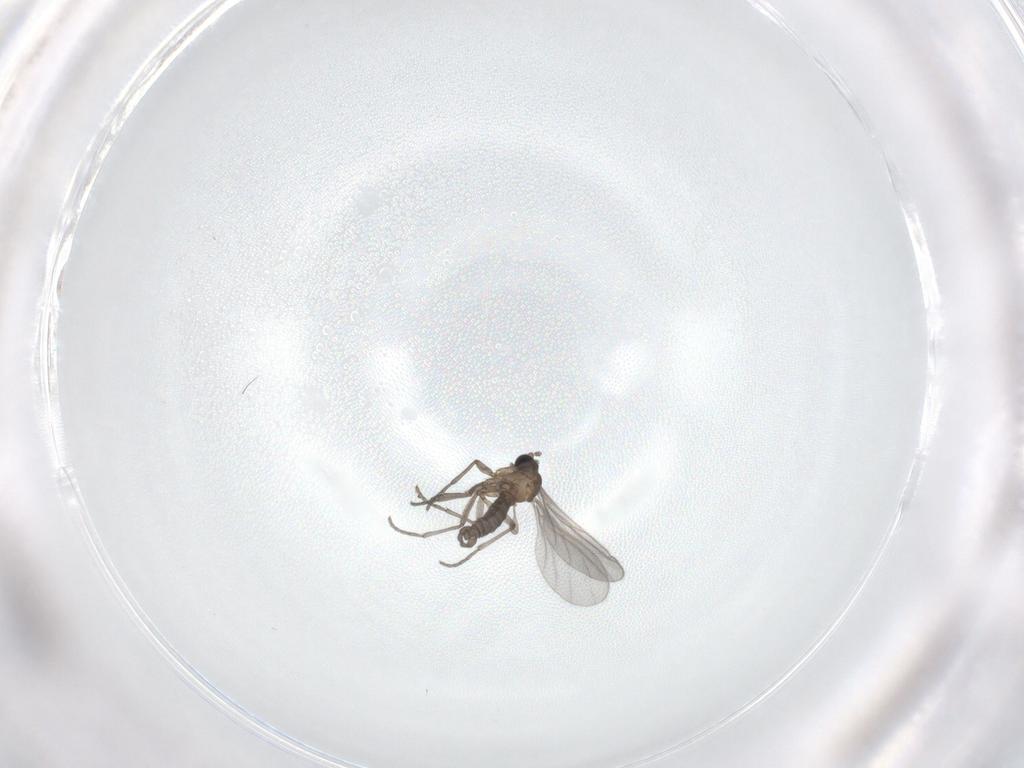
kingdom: Animalia
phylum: Arthropoda
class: Insecta
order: Diptera
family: Sciaridae
